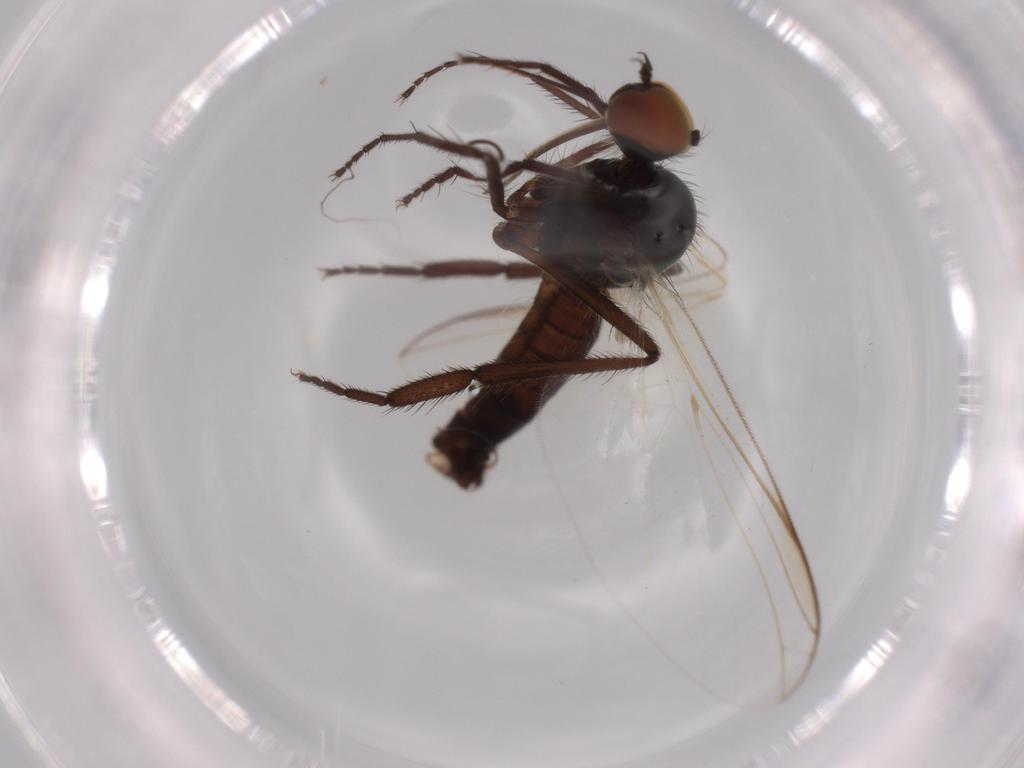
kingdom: Animalia
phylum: Arthropoda
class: Insecta
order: Diptera
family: Empididae
